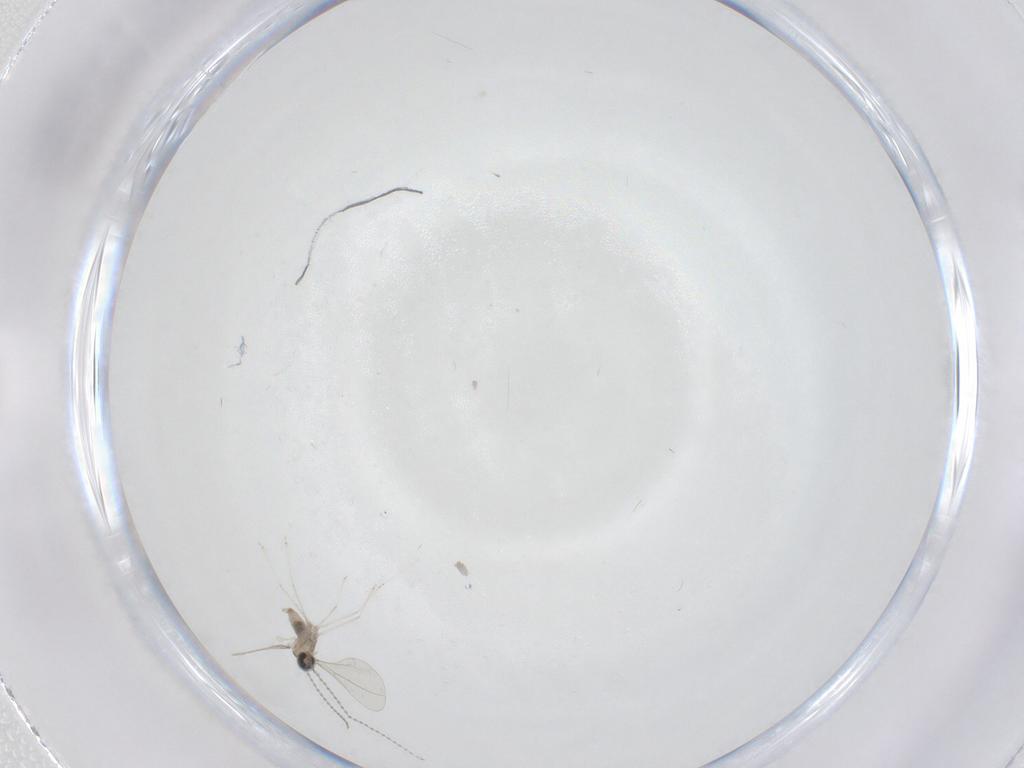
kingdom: Animalia
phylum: Arthropoda
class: Insecta
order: Diptera
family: Cecidomyiidae
